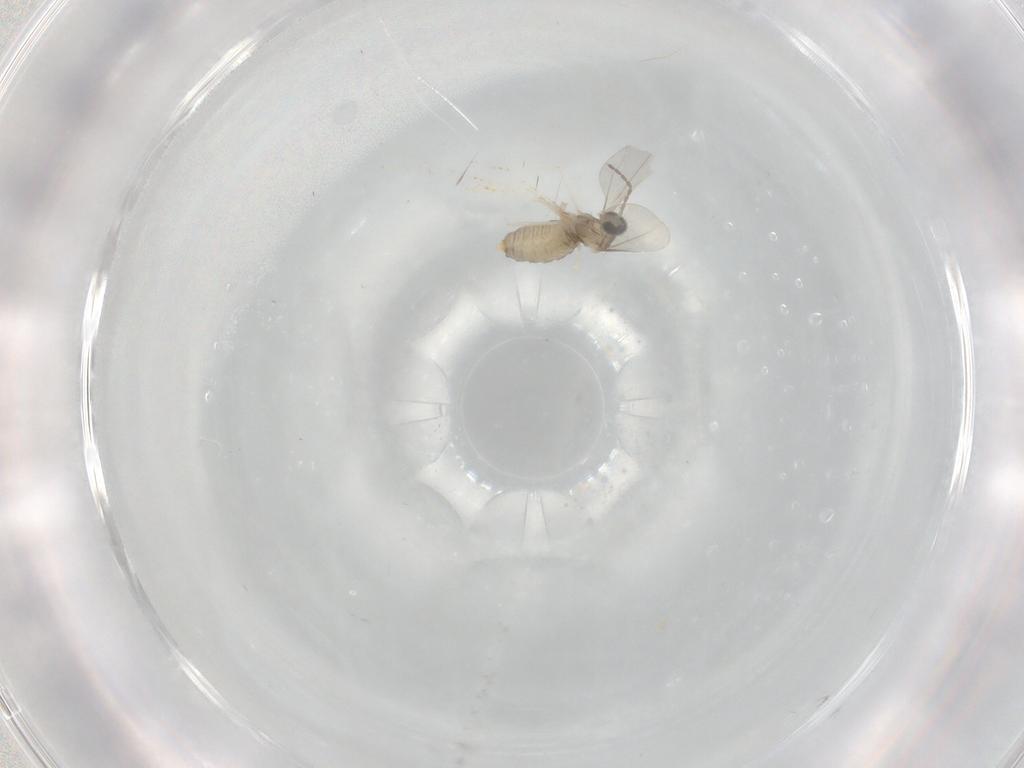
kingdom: Animalia
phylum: Arthropoda
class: Insecta
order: Diptera
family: Cecidomyiidae
